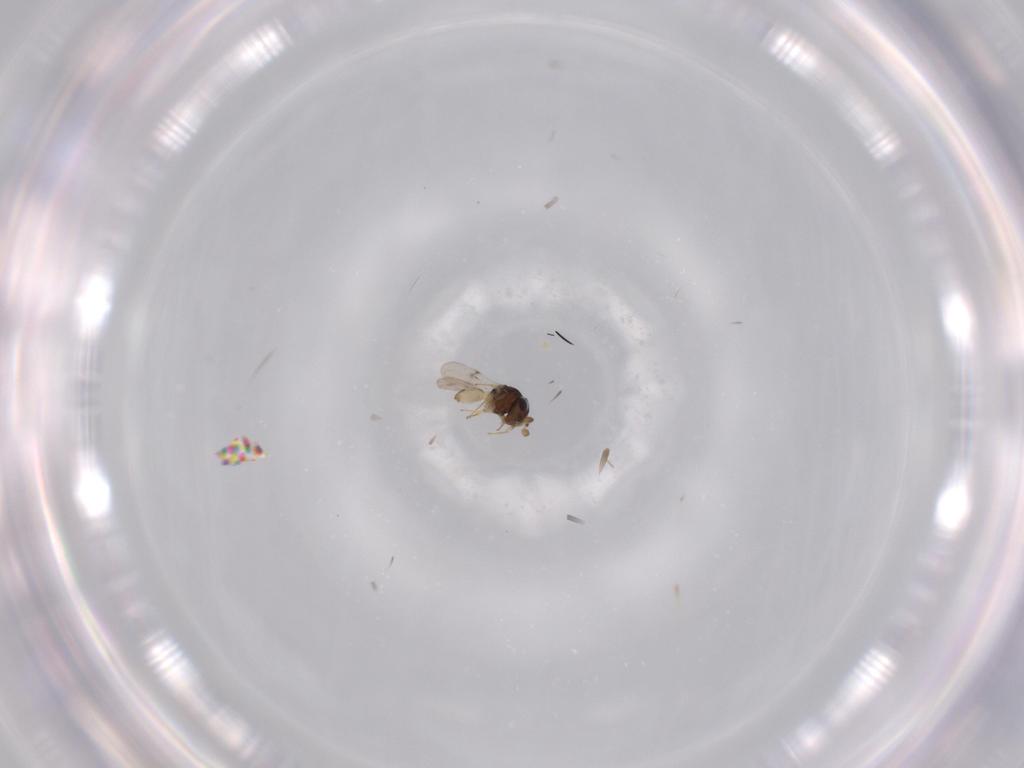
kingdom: Animalia
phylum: Arthropoda
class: Insecta
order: Hymenoptera
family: Scelionidae
